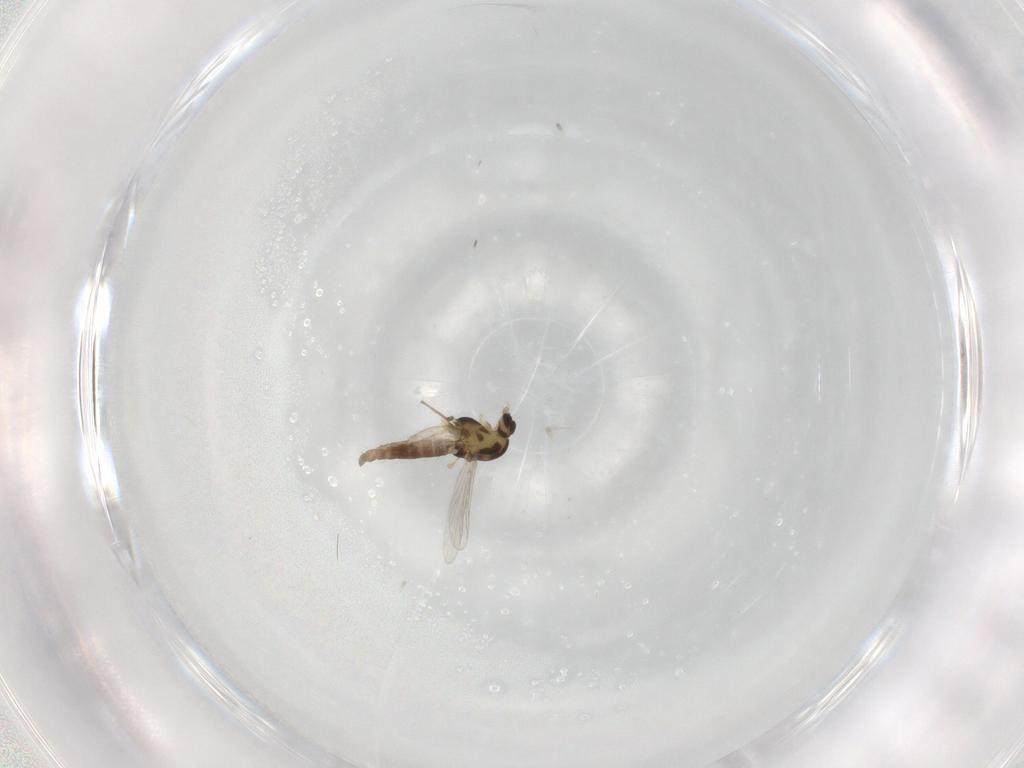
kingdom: Animalia
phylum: Arthropoda
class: Insecta
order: Diptera
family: Chironomidae
